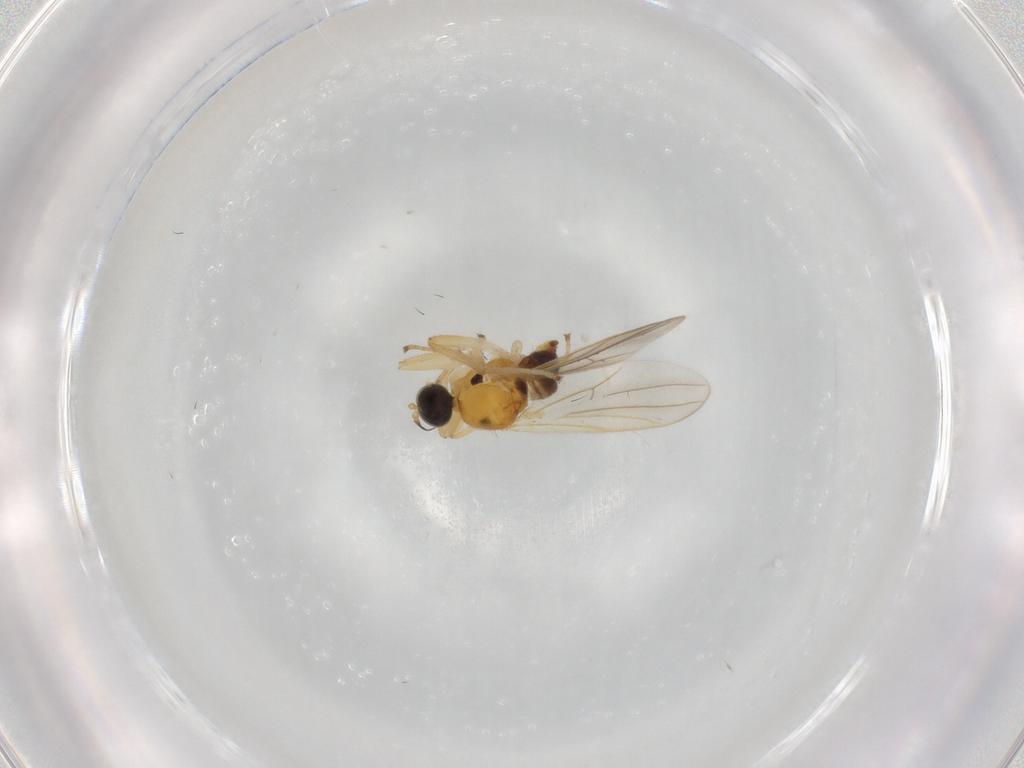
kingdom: Animalia
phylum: Arthropoda
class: Insecta
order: Diptera
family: Hybotidae
